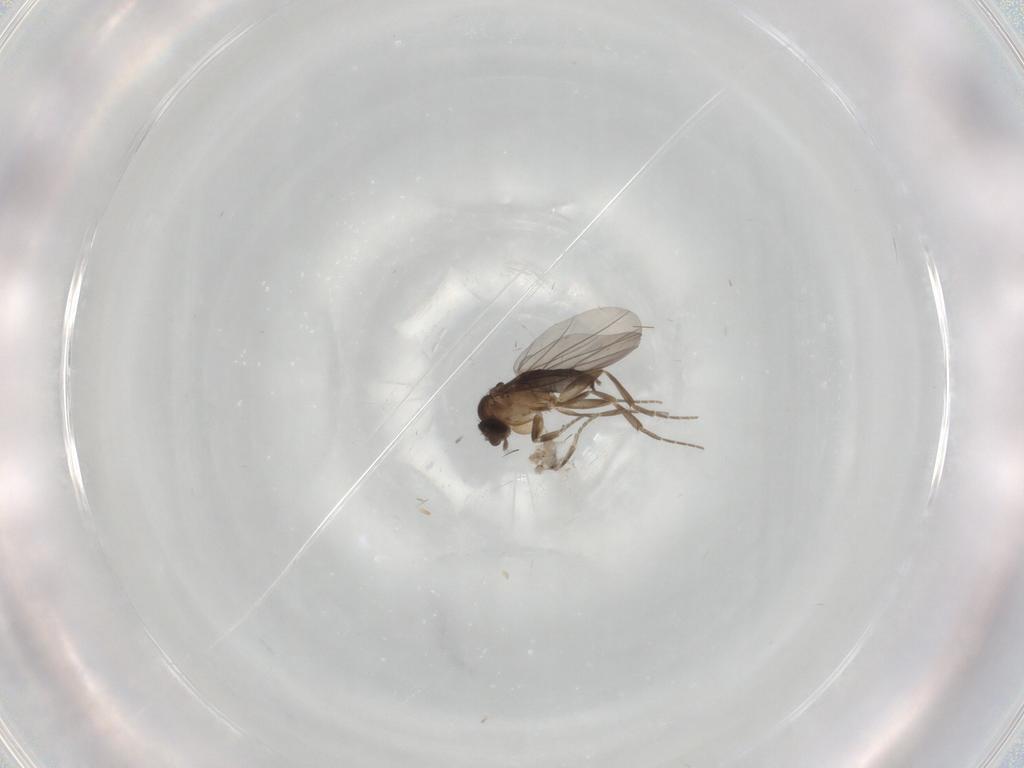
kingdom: Animalia
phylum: Arthropoda
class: Insecta
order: Diptera
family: Phoridae
